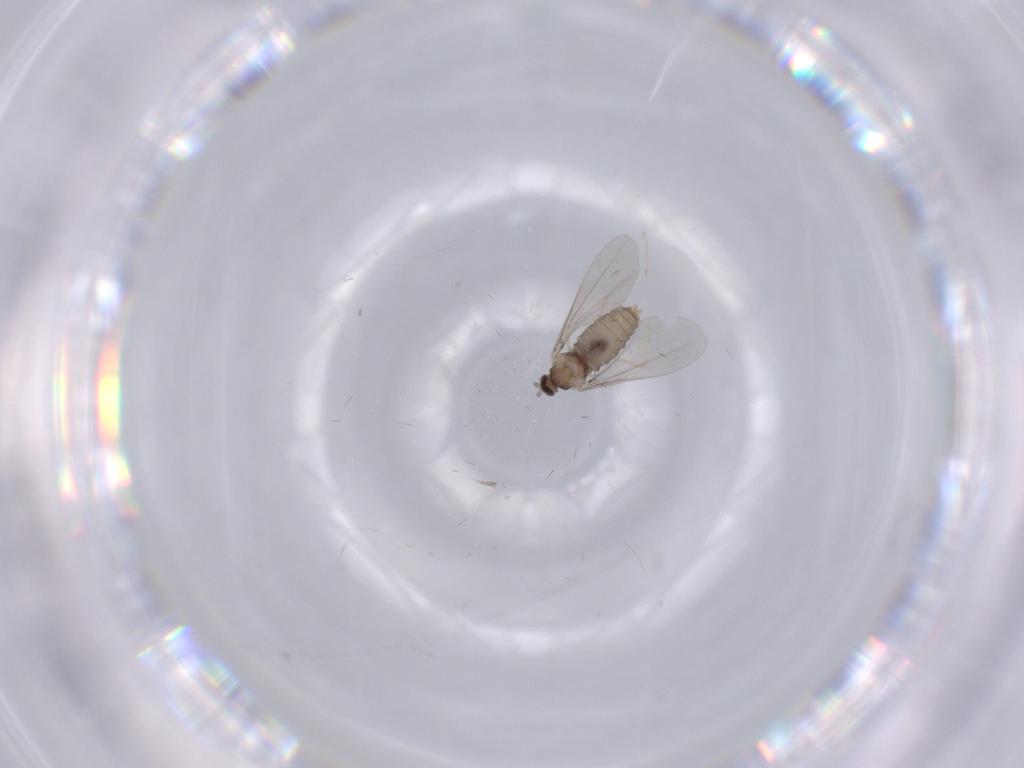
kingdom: Animalia
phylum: Arthropoda
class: Insecta
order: Diptera
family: Cecidomyiidae
